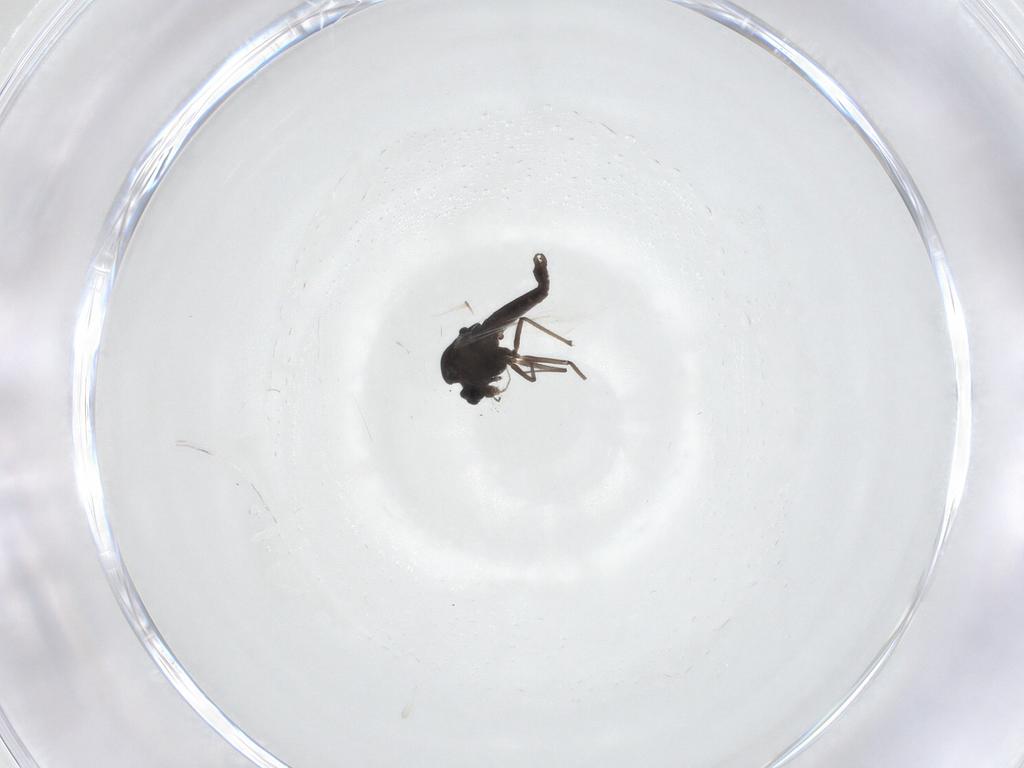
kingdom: Animalia
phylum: Arthropoda
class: Insecta
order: Diptera
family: Chironomidae
